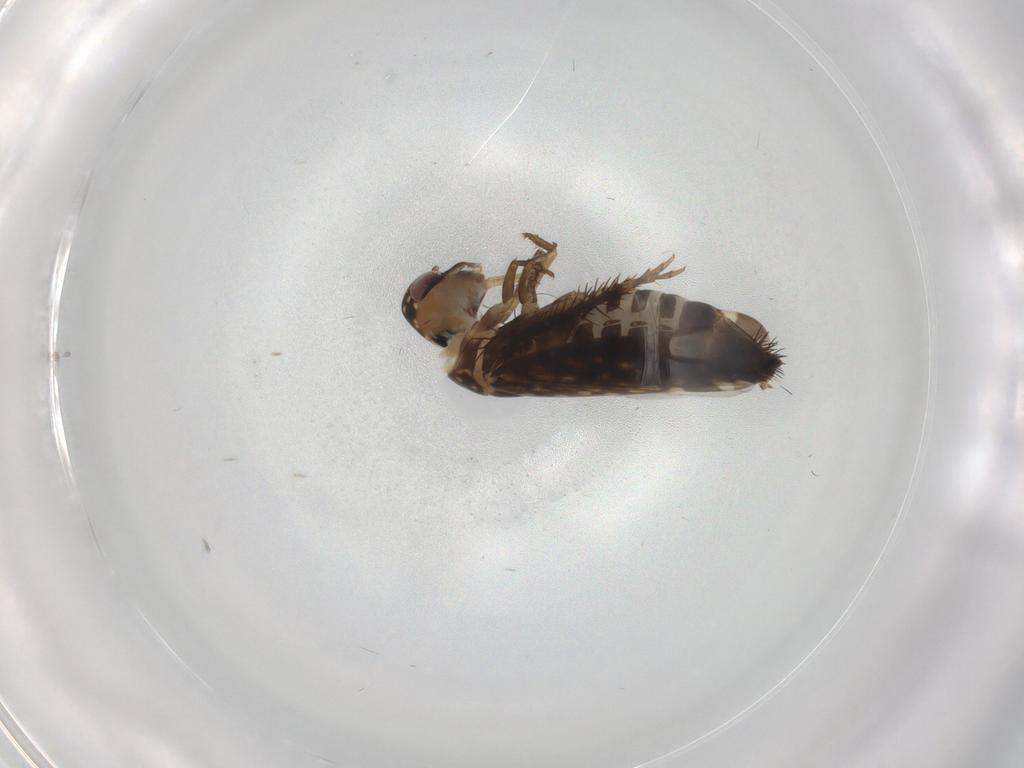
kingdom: Animalia
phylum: Arthropoda
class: Insecta
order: Hemiptera
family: Cicadellidae
